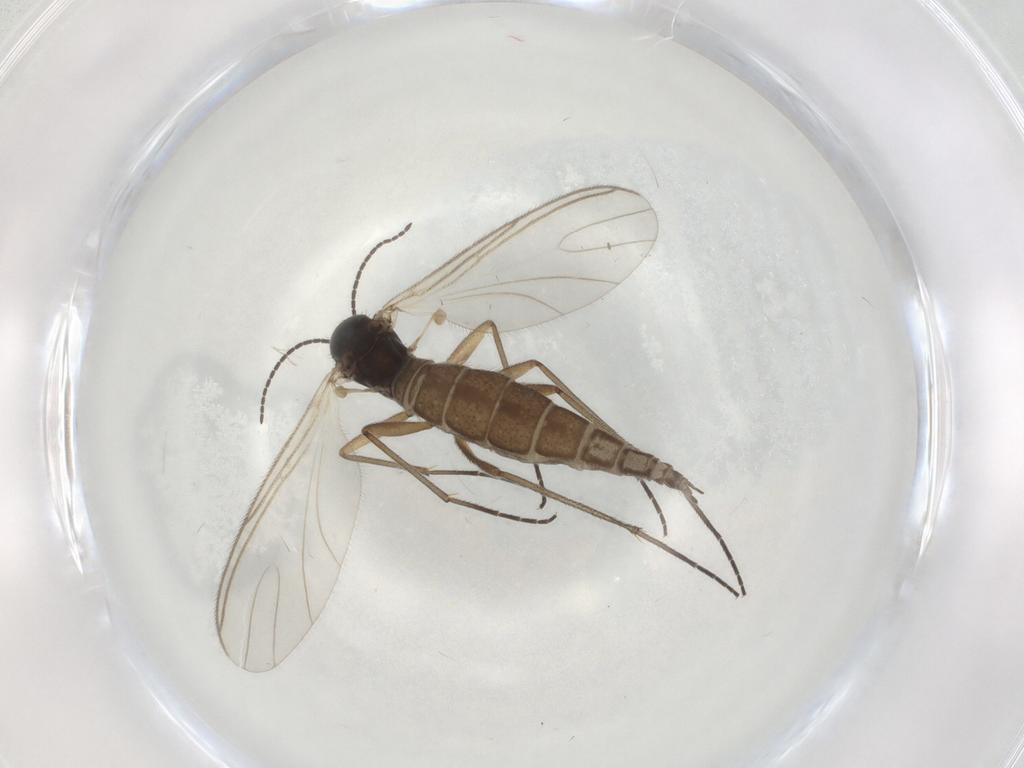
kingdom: Animalia
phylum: Arthropoda
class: Insecta
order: Diptera
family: Sciaridae
